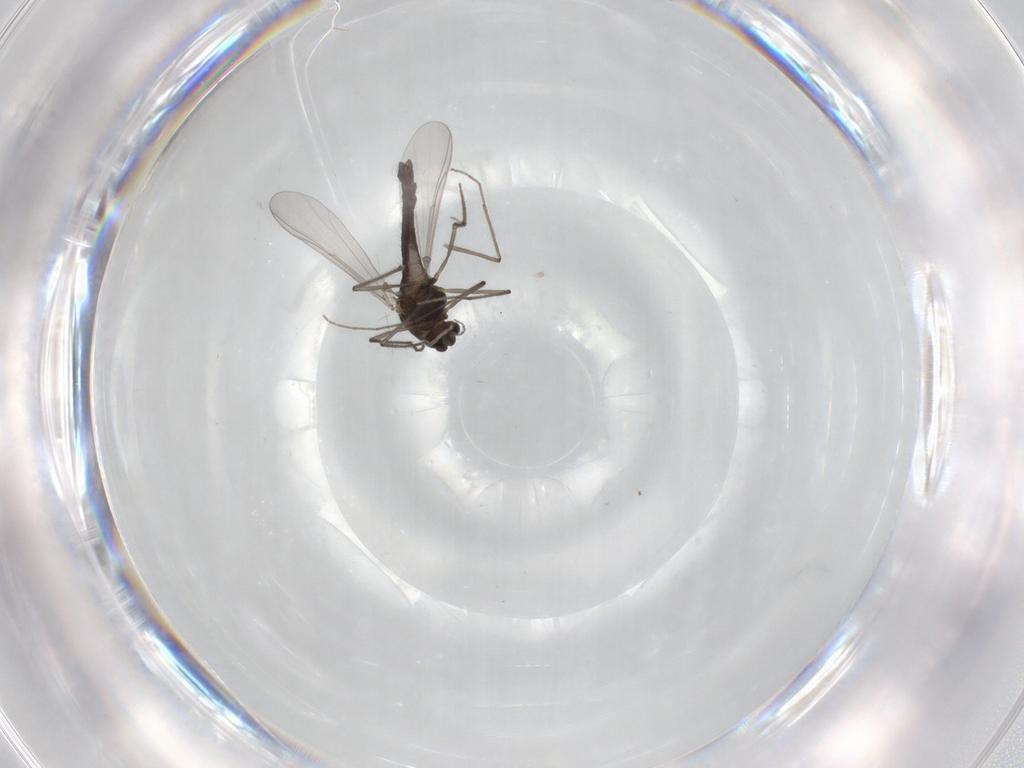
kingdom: Animalia
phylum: Arthropoda
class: Insecta
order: Diptera
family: Chironomidae
